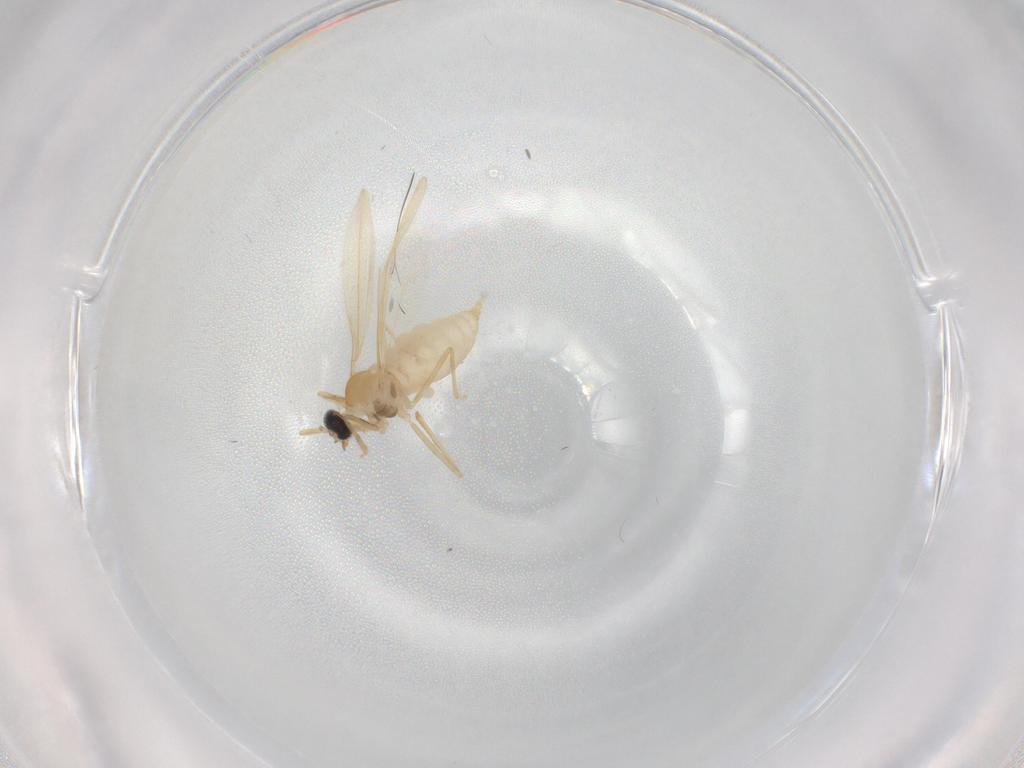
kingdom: Animalia
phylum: Arthropoda
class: Insecta
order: Diptera
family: Cecidomyiidae
